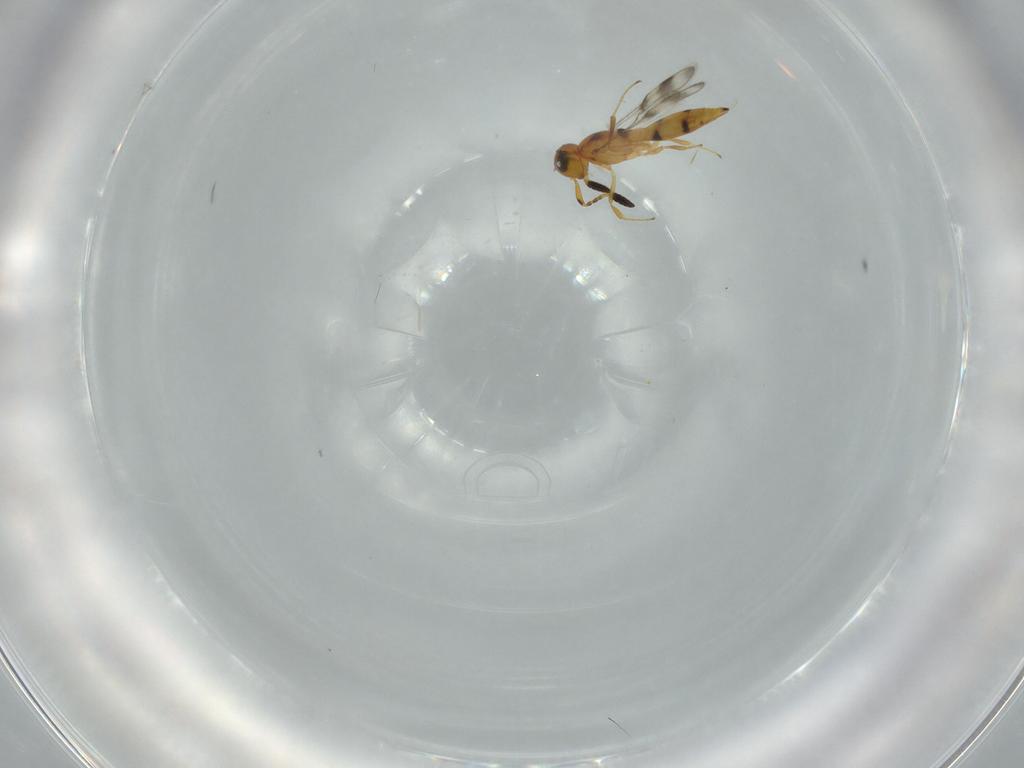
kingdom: Animalia
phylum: Arthropoda
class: Insecta
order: Hymenoptera
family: Scelionidae
